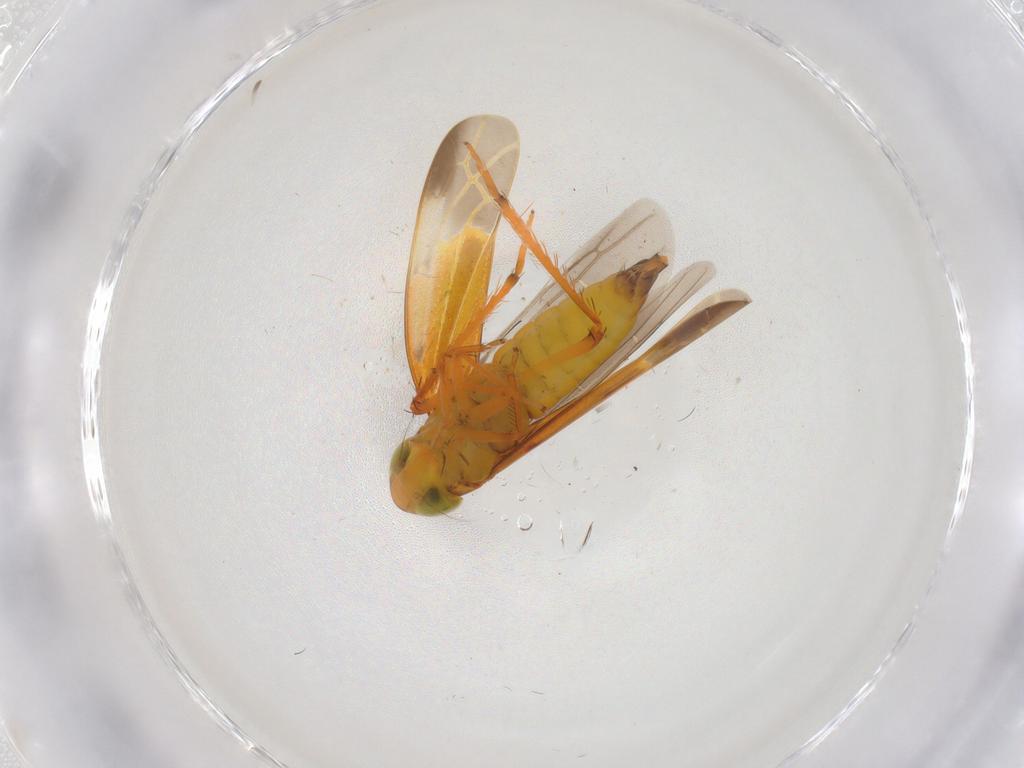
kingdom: Animalia
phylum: Arthropoda
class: Insecta
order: Hemiptera
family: Cicadellidae
